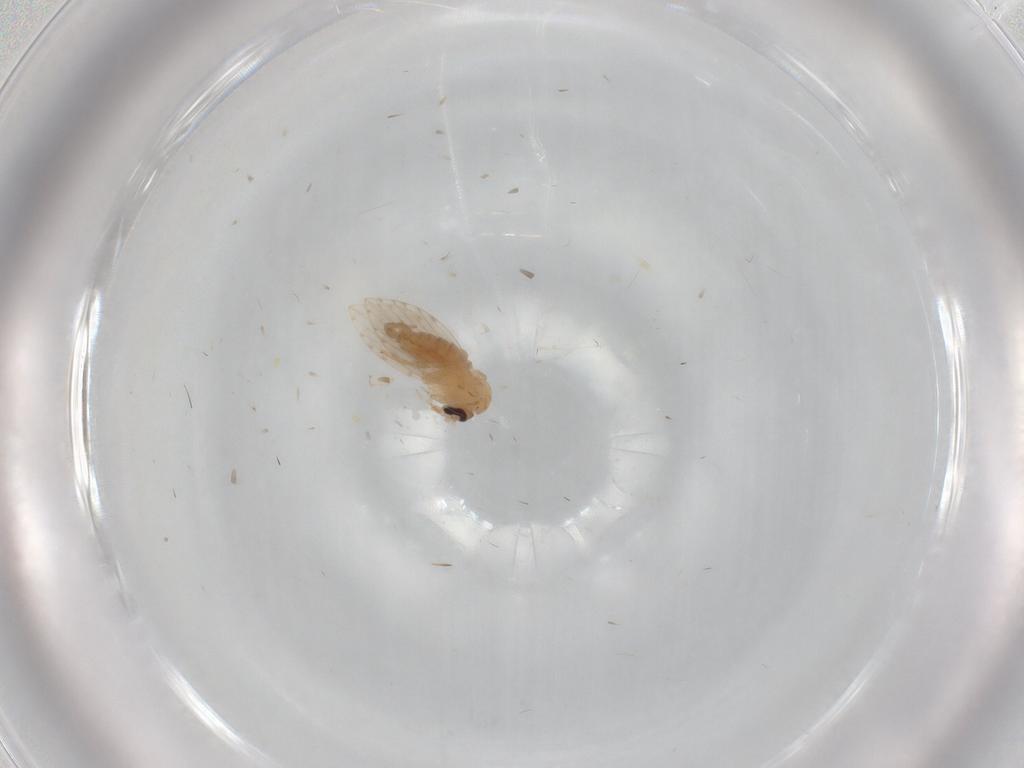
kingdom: Animalia
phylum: Arthropoda
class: Insecta
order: Diptera
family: Psychodidae
